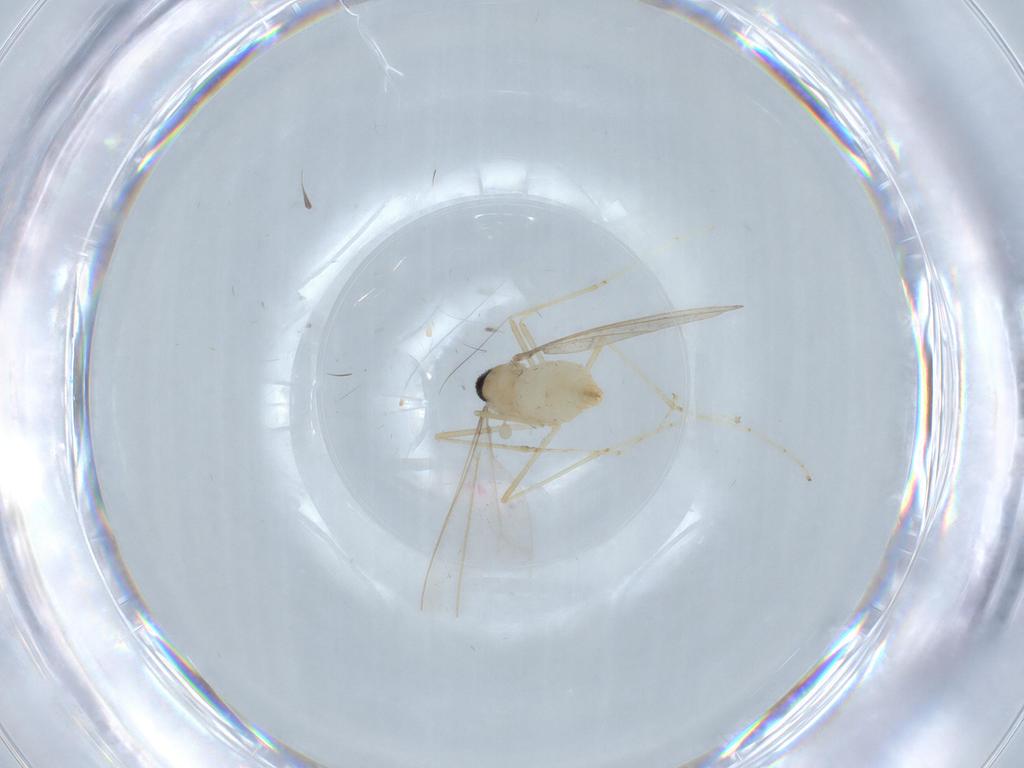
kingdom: Animalia
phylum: Arthropoda
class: Insecta
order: Diptera
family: Cecidomyiidae
